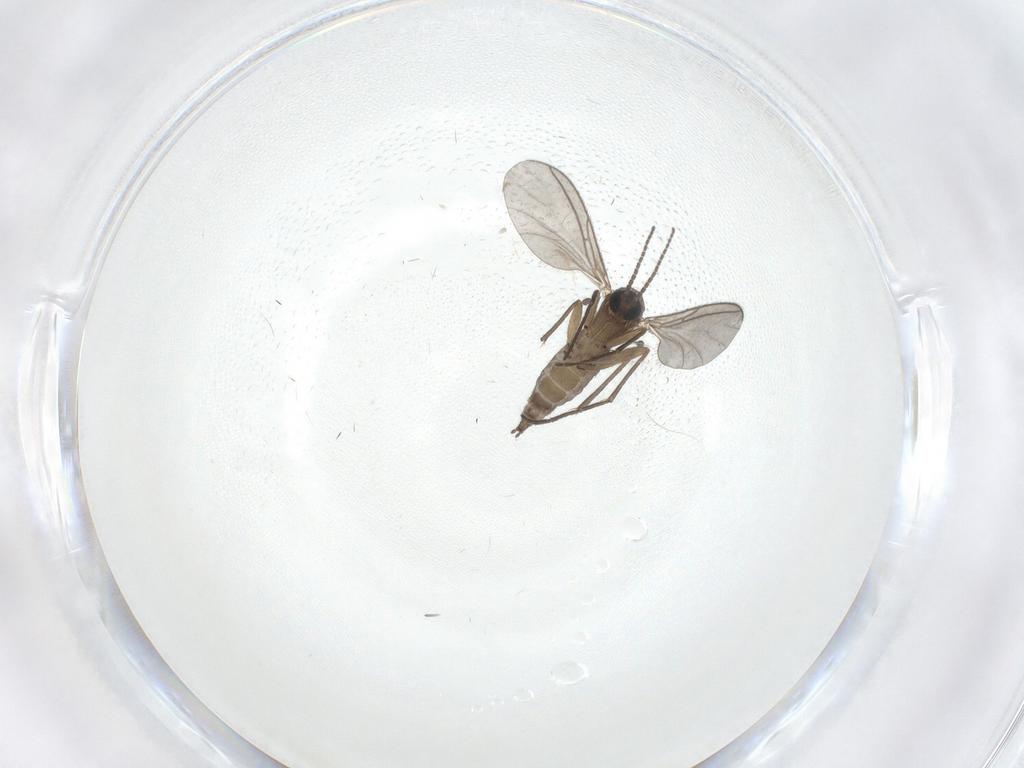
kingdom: Animalia
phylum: Arthropoda
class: Insecta
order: Diptera
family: Sciaridae
